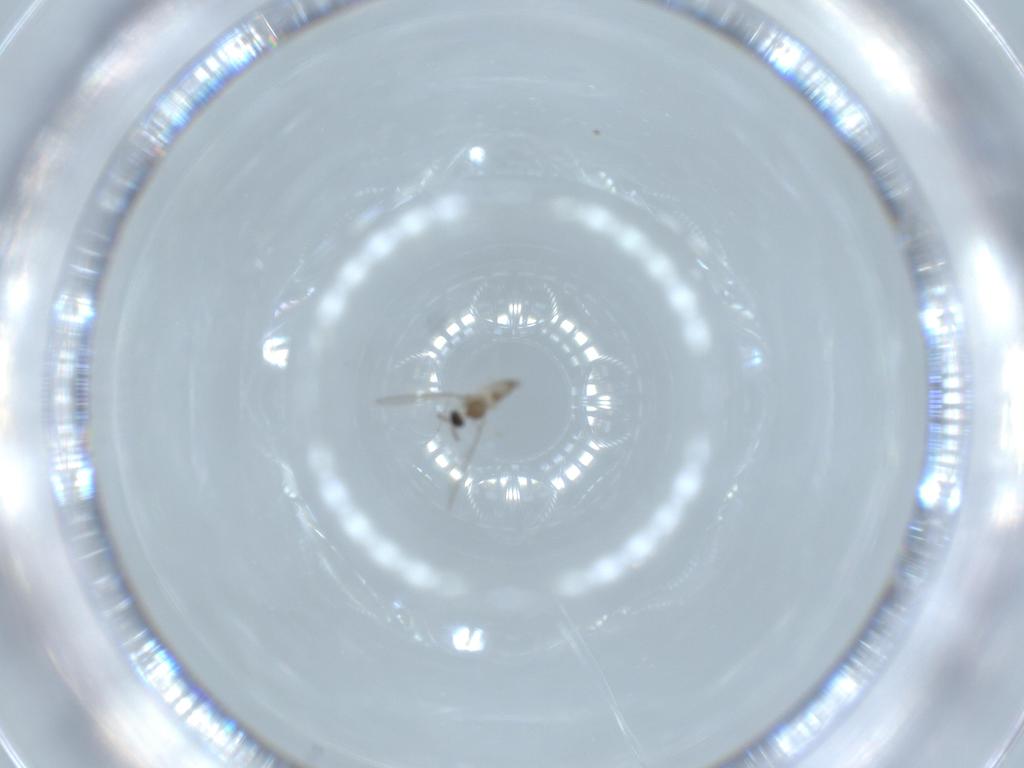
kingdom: Animalia
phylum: Arthropoda
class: Insecta
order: Diptera
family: Cecidomyiidae
